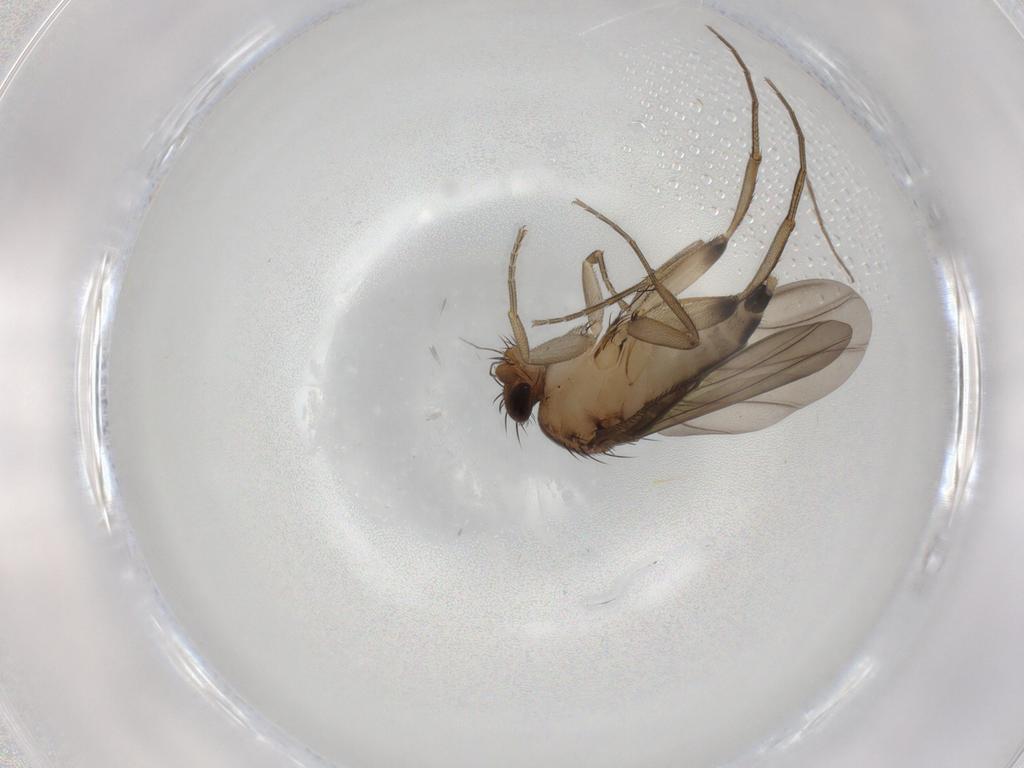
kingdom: Animalia
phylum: Arthropoda
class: Insecta
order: Diptera
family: Phoridae
